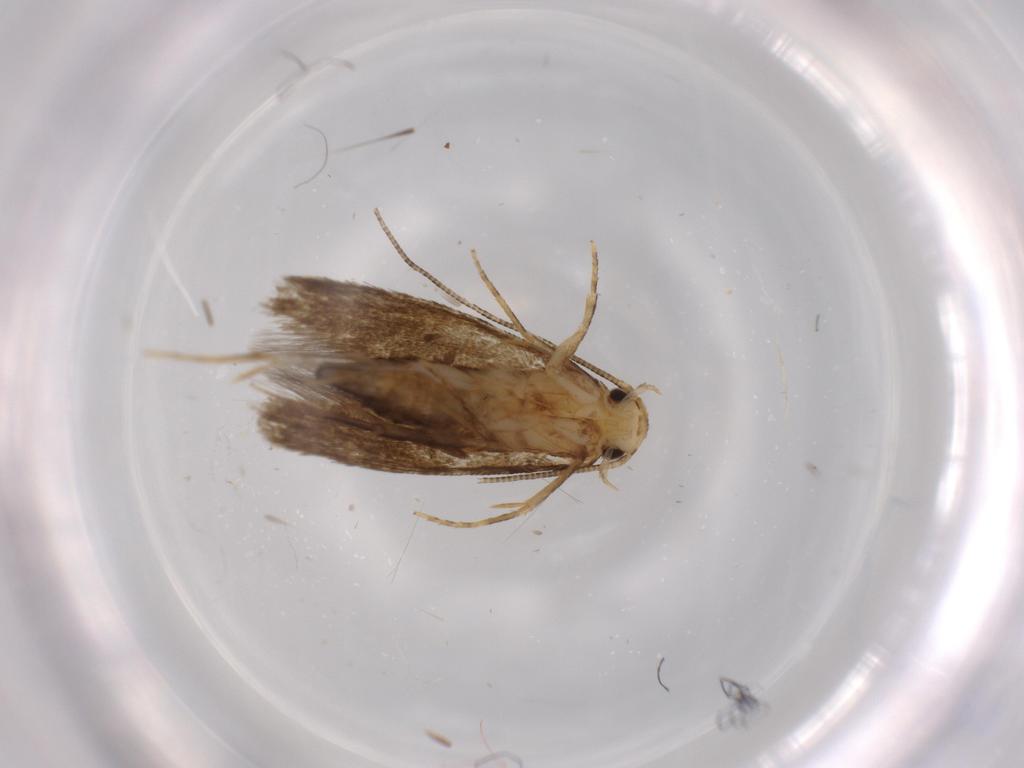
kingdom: Animalia
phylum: Arthropoda
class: Insecta
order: Lepidoptera
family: Tineidae
